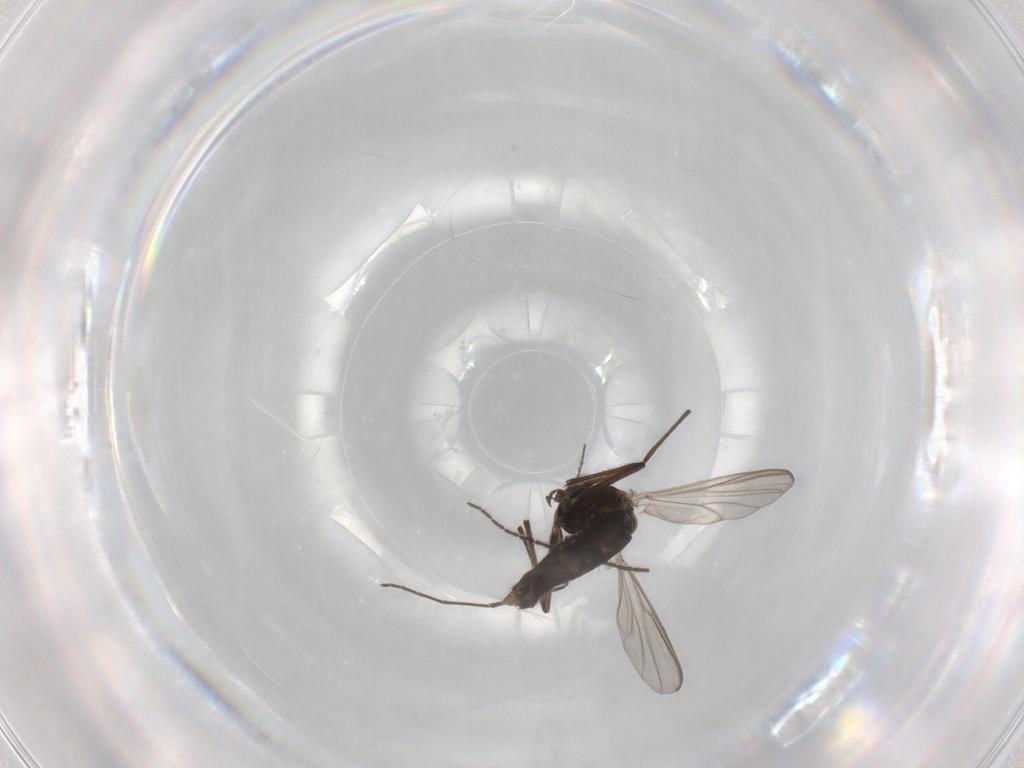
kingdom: Animalia
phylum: Arthropoda
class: Insecta
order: Diptera
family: Chironomidae
